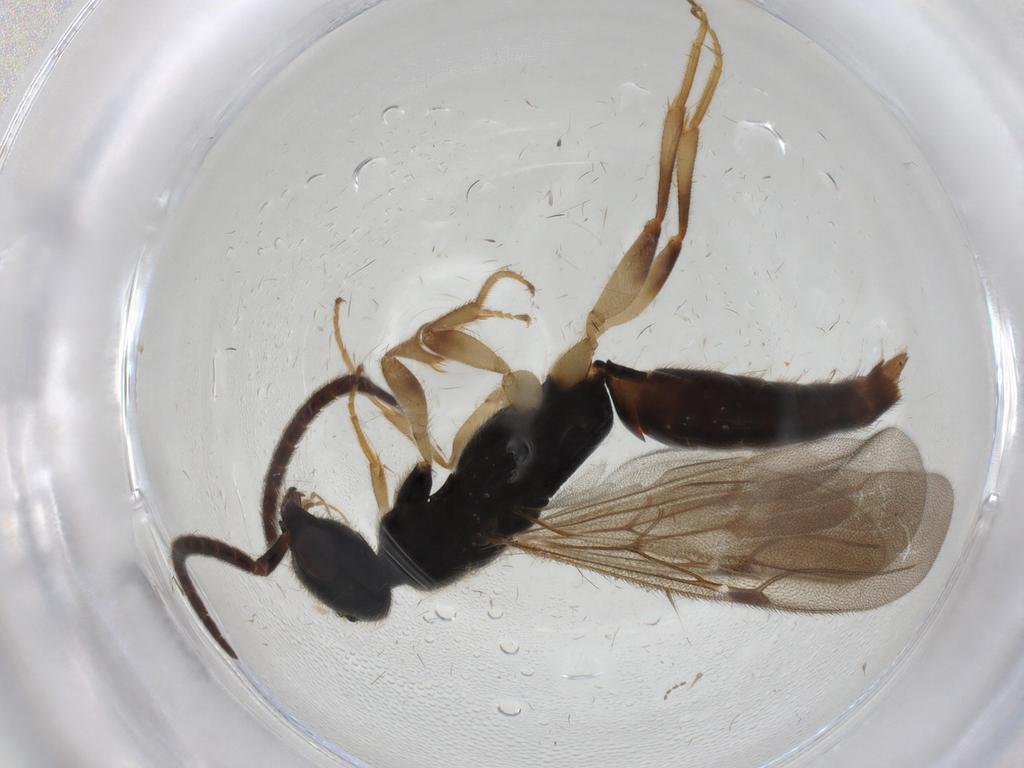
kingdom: Animalia
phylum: Arthropoda
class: Insecta
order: Hymenoptera
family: Bethylidae
